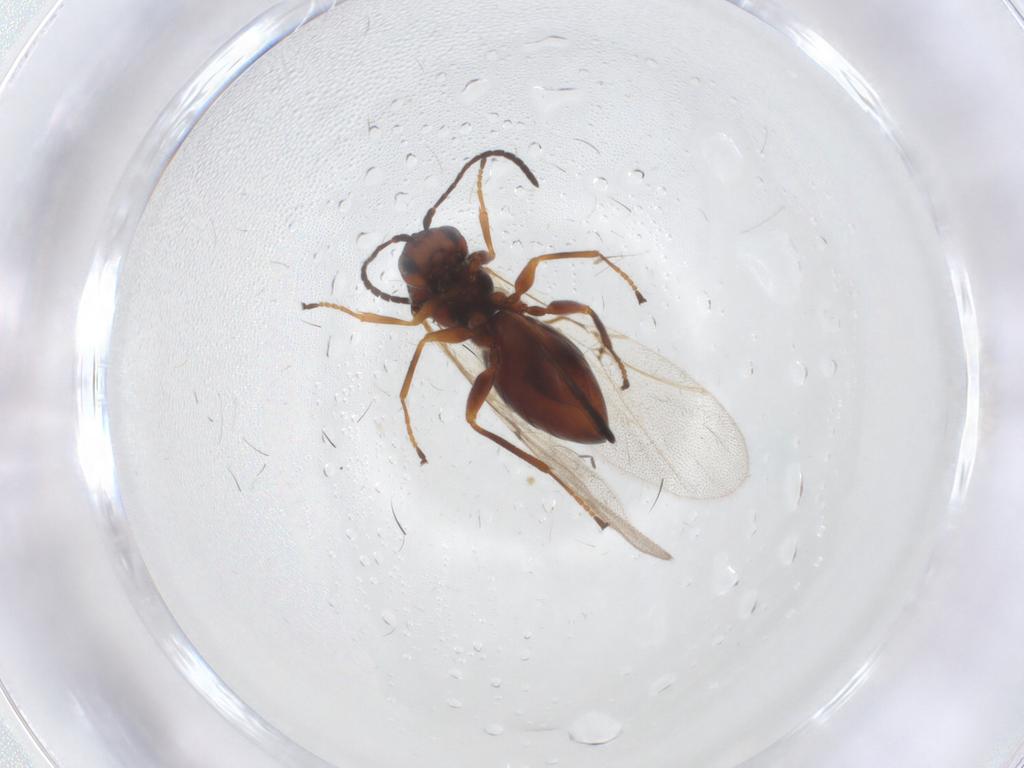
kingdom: Animalia
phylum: Arthropoda
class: Insecta
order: Hymenoptera
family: Cynipidae
